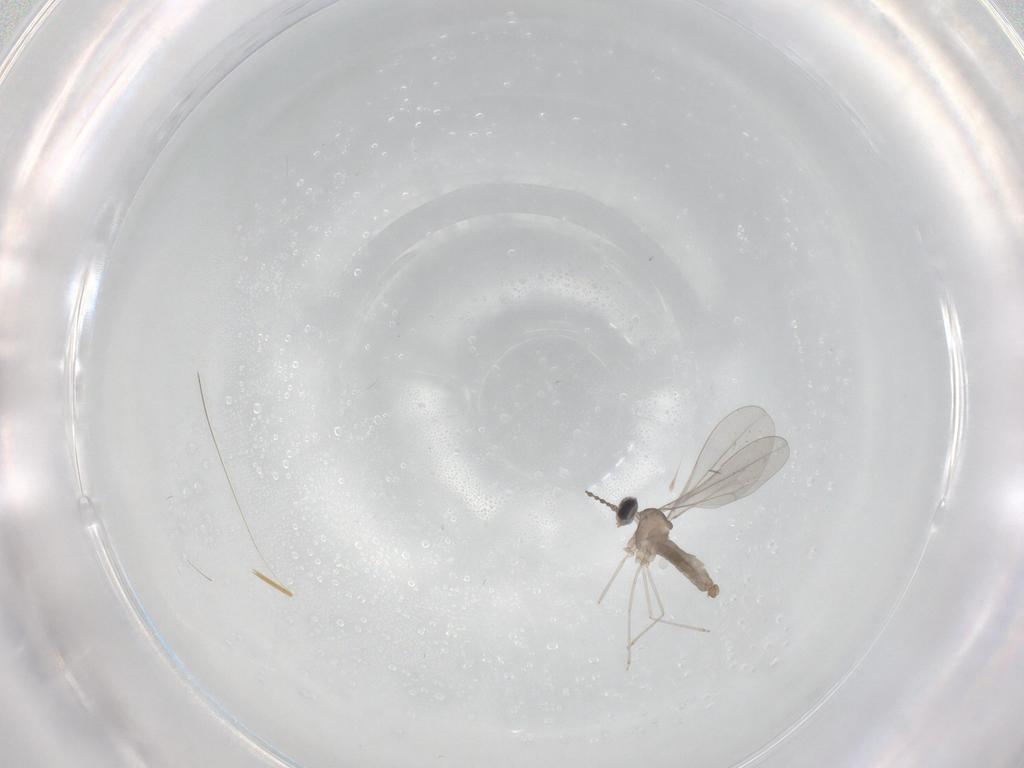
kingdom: Animalia
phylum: Arthropoda
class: Insecta
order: Diptera
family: Cecidomyiidae
